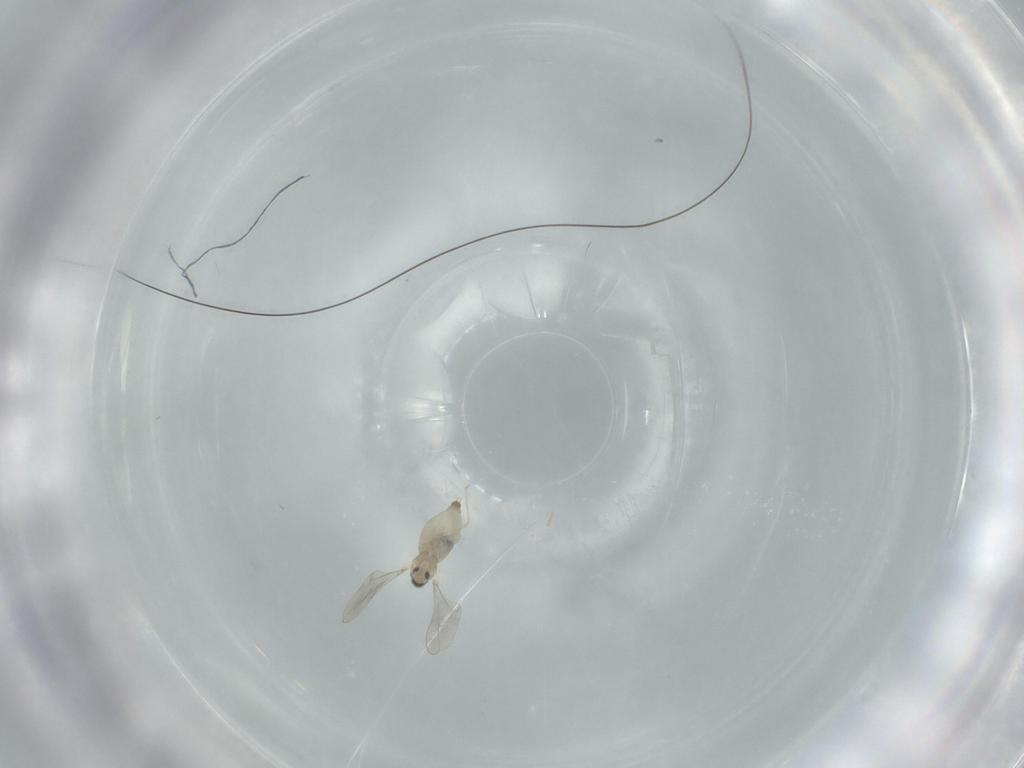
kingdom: Animalia
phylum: Arthropoda
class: Insecta
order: Diptera
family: Cecidomyiidae
